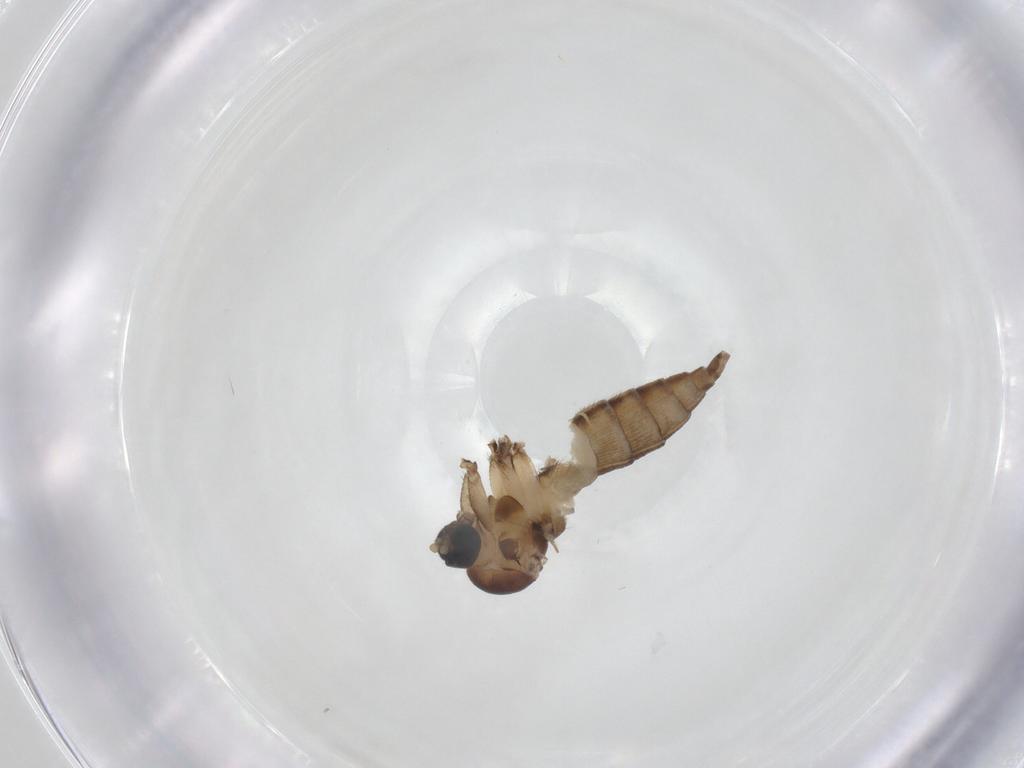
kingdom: Animalia
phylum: Arthropoda
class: Insecta
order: Diptera
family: Sciaridae
